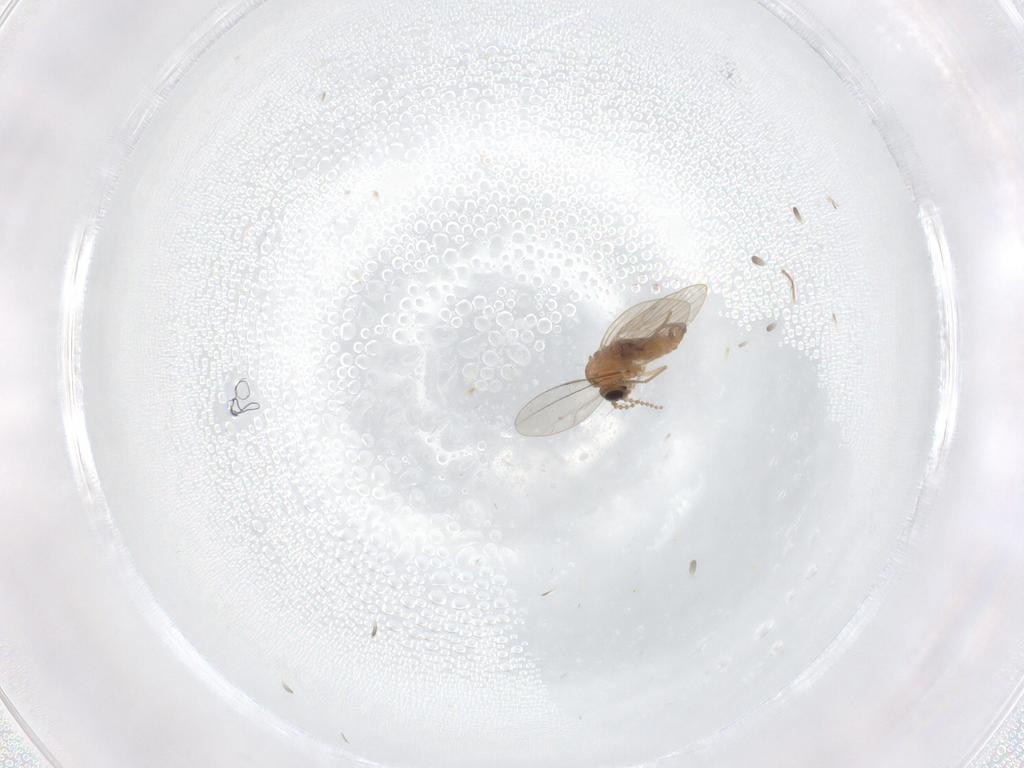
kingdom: Animalia
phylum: Arthropoda
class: Insecta
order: Diptera
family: Psychodidae
